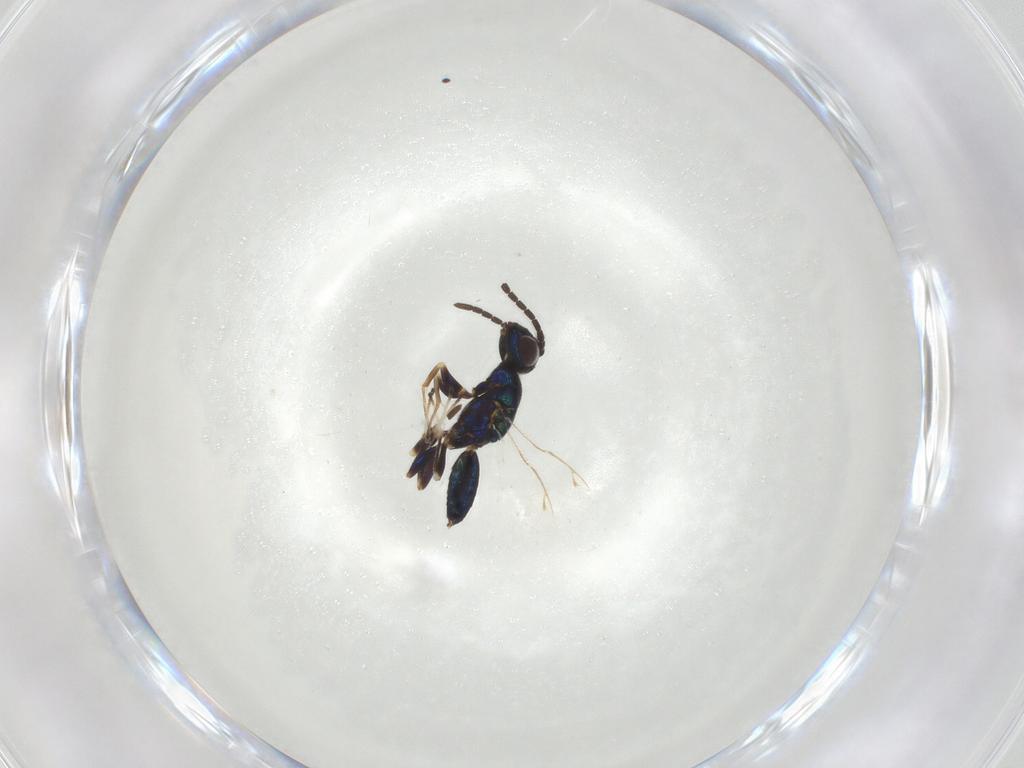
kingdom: Animalia
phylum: Arthropoda
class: Insecta
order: Hymenoptera
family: Eupelmidae
